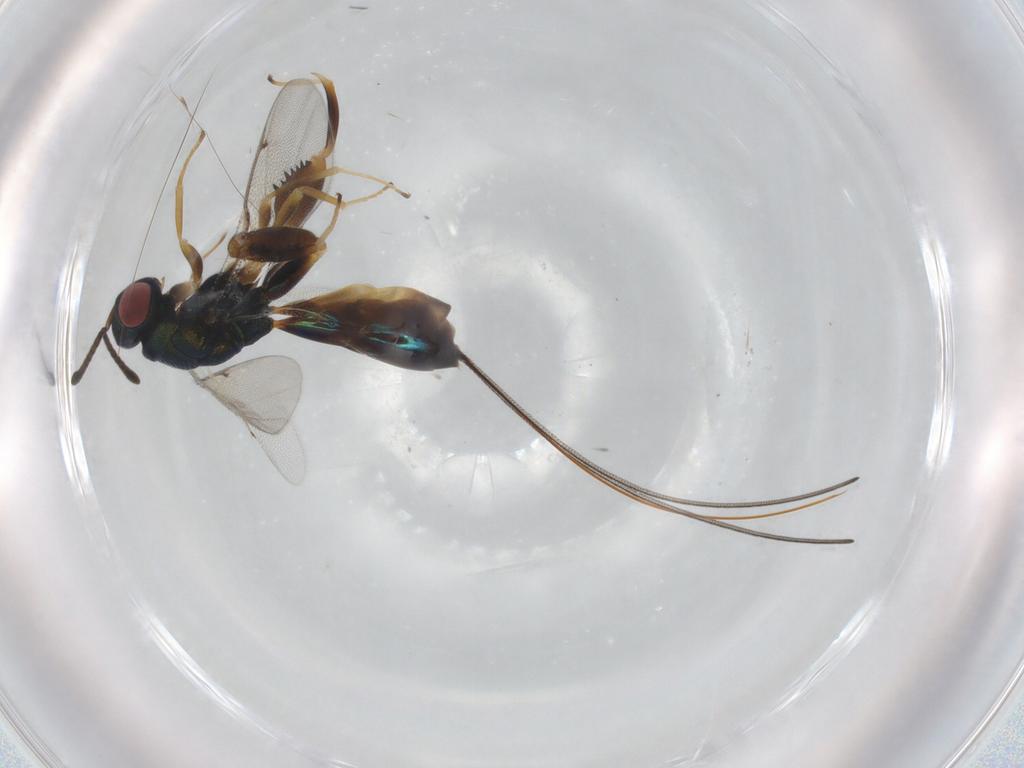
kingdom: Animalia
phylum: Arthropoda
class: Insecta
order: Hymenoptera
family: Torymidae
